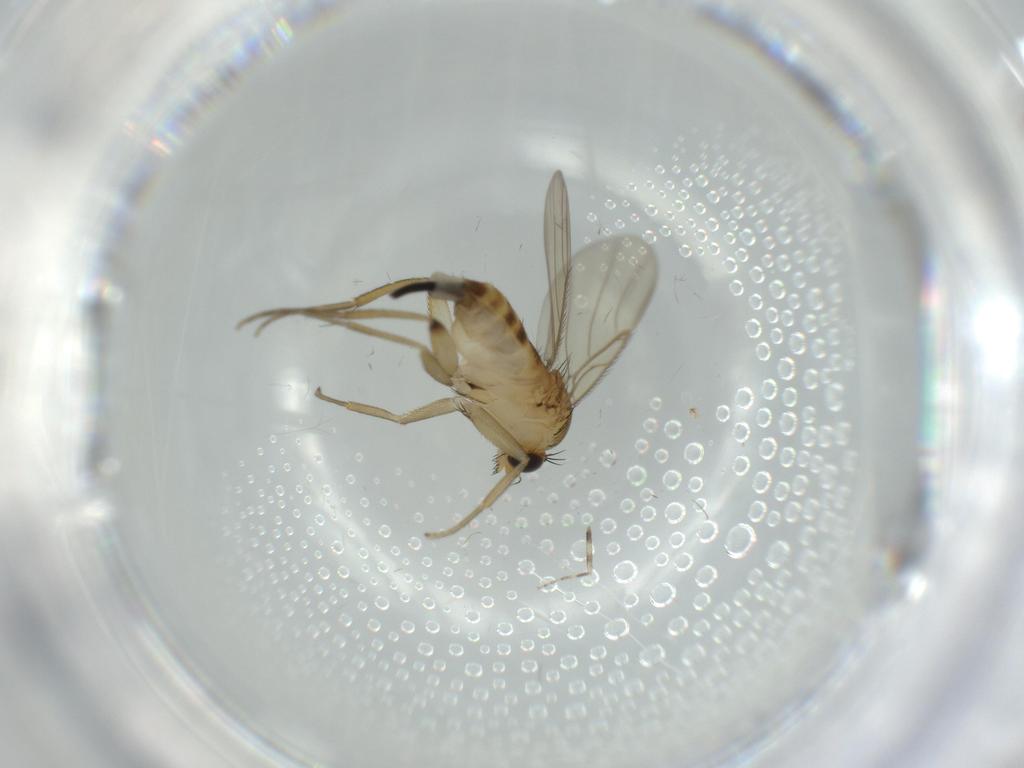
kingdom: Animalia
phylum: Arthropoda
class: Insecta
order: Diptera
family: Phoridae
